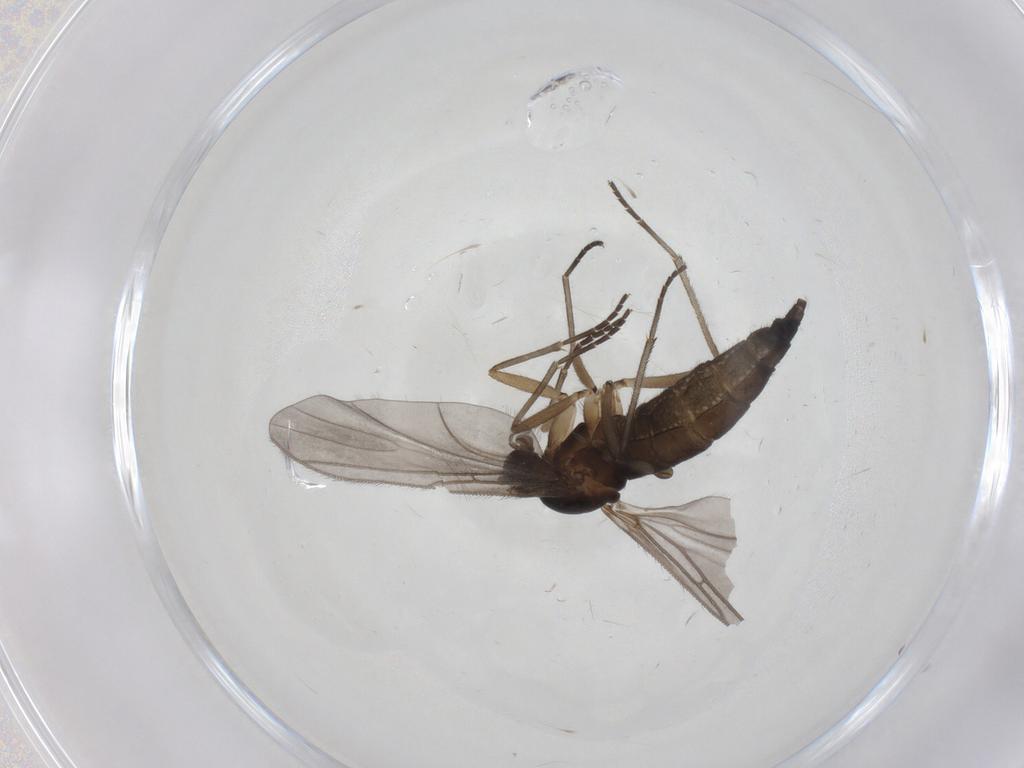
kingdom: Animalia
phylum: Arthropoda
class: Insecta
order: Diptera
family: Sciaridae
